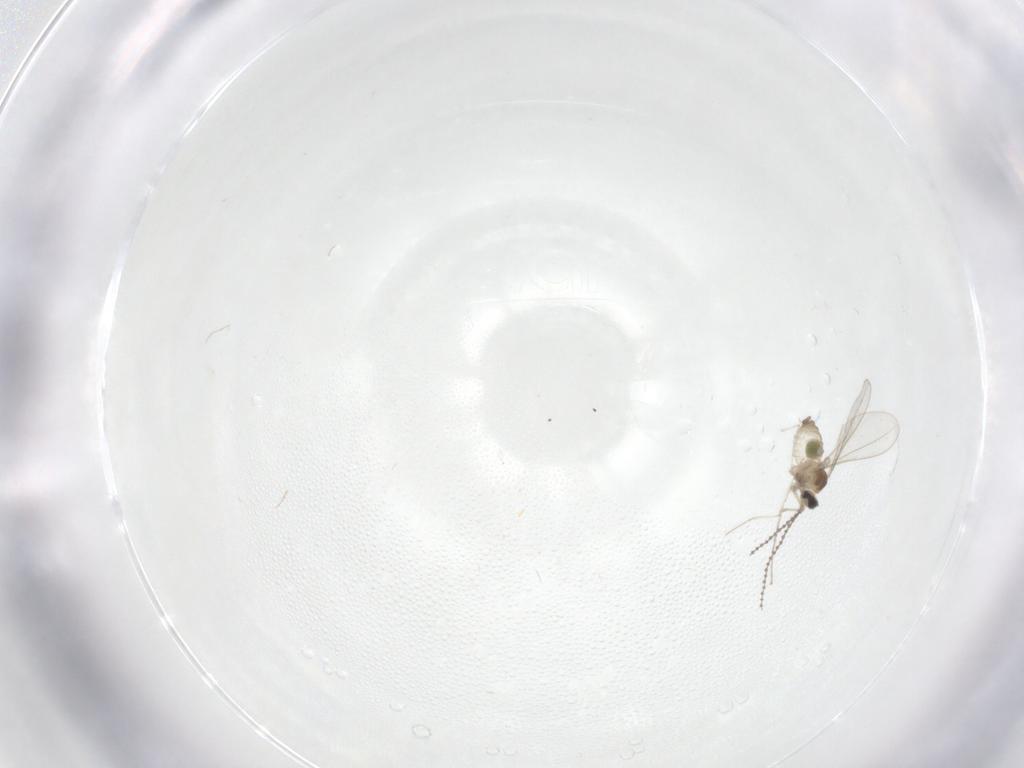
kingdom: Animalia
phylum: Arthropoda
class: Insecta
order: Diptera
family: Cecidomyiidae
